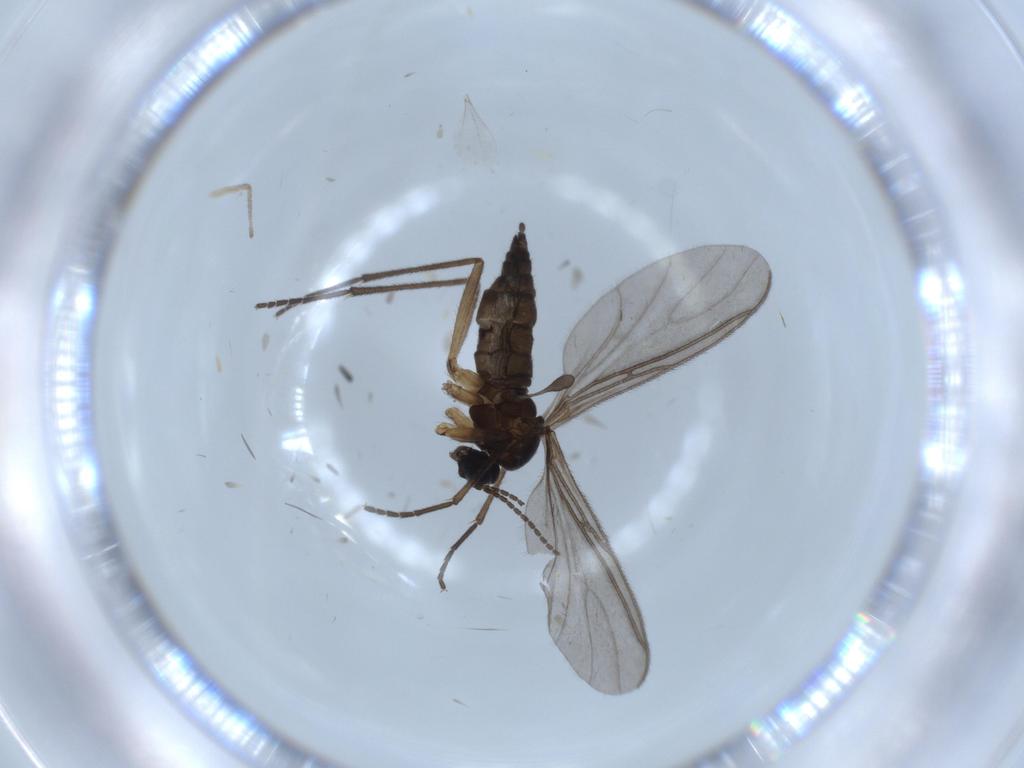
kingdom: Animalia
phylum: Arthropoda
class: Insecta
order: Diptera
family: Sciaridae
